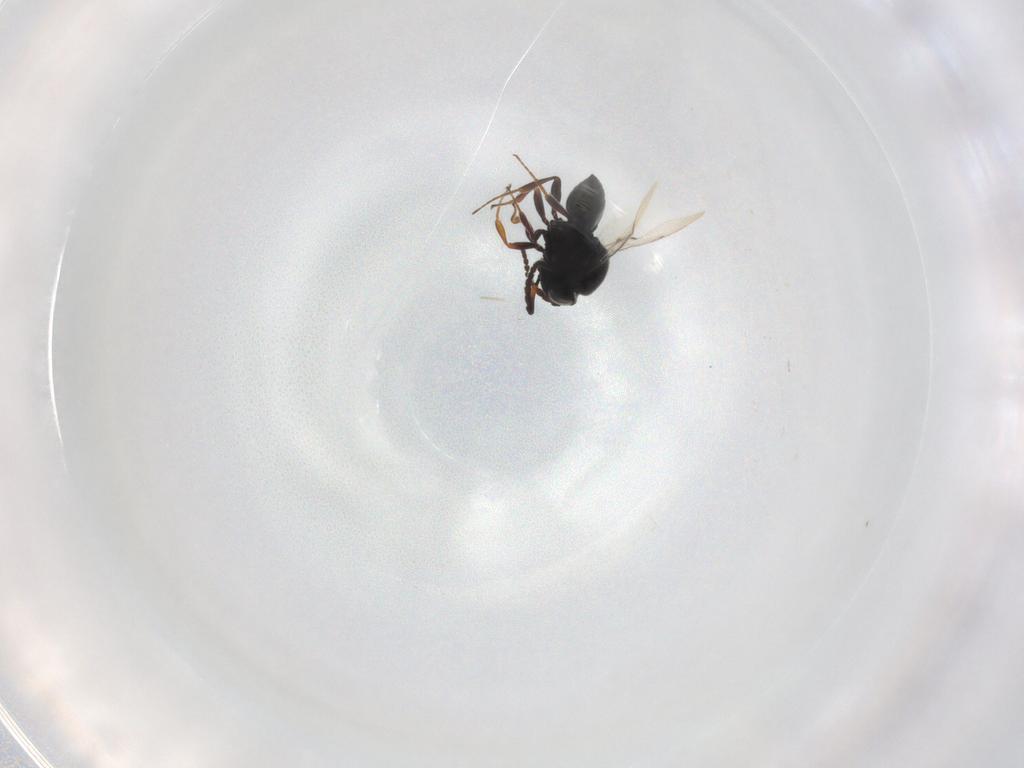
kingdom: Animalia
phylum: Arthropoda
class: Insecta
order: Hymenoptera
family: Scelionidae
